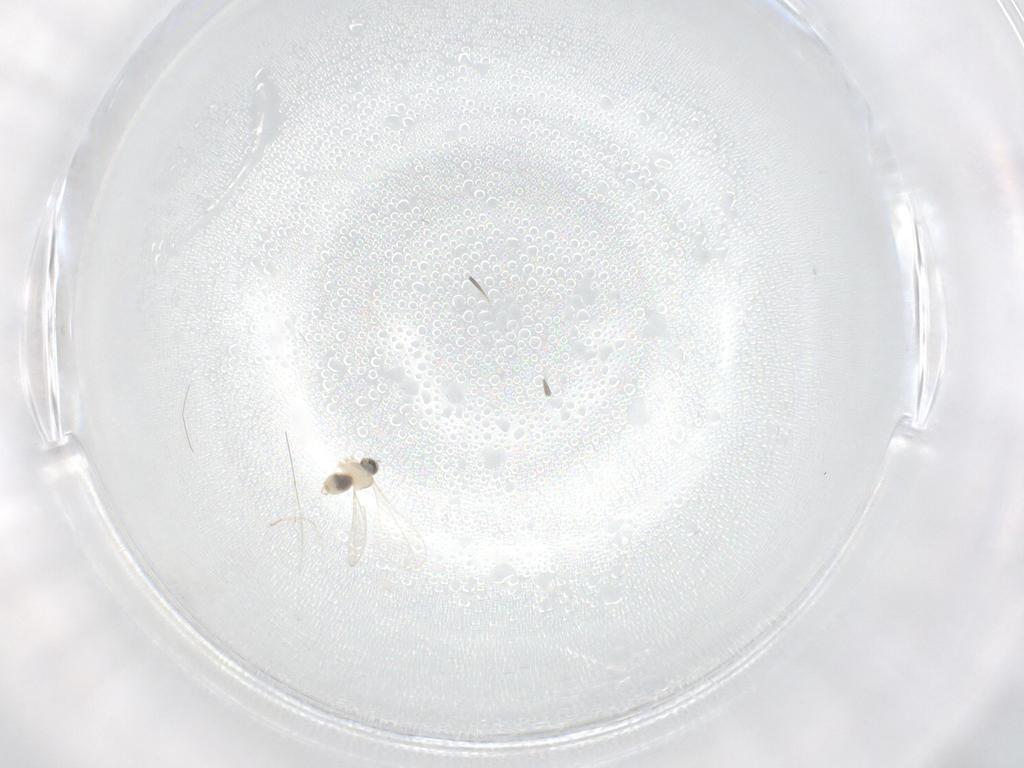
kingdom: Animalia
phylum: Arthropoda
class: Insecta
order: Diptera
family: Cecidomyiidae
